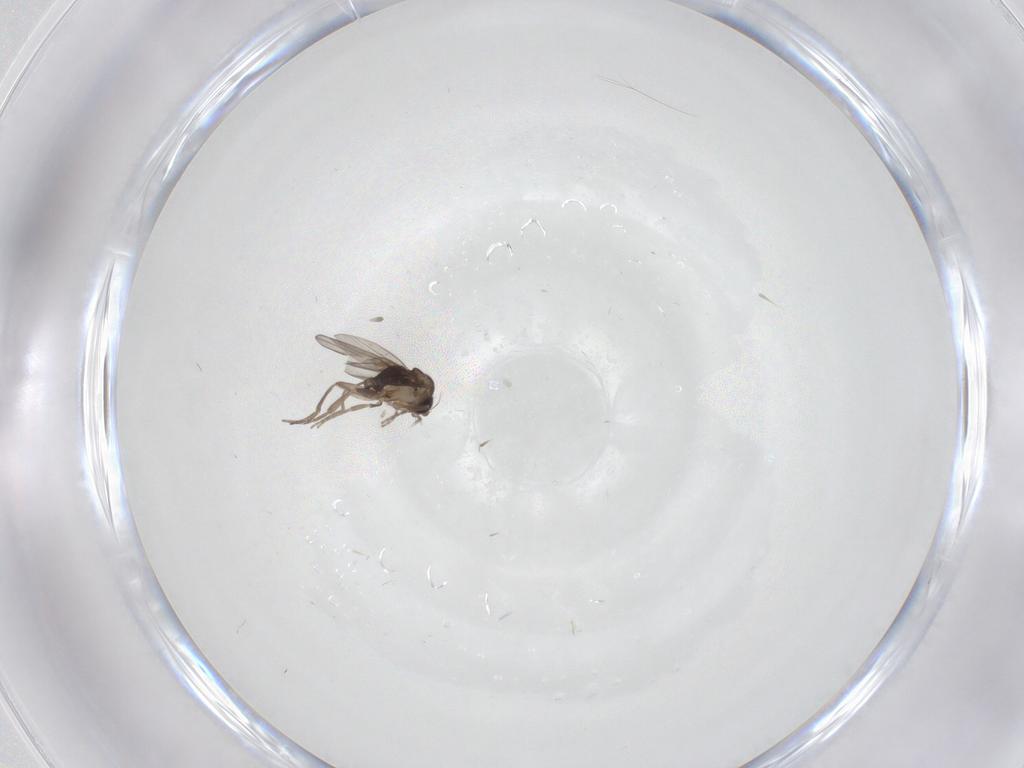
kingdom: Animalia
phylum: Arthropoda
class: Insecta
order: Diptera
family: Phoridae
